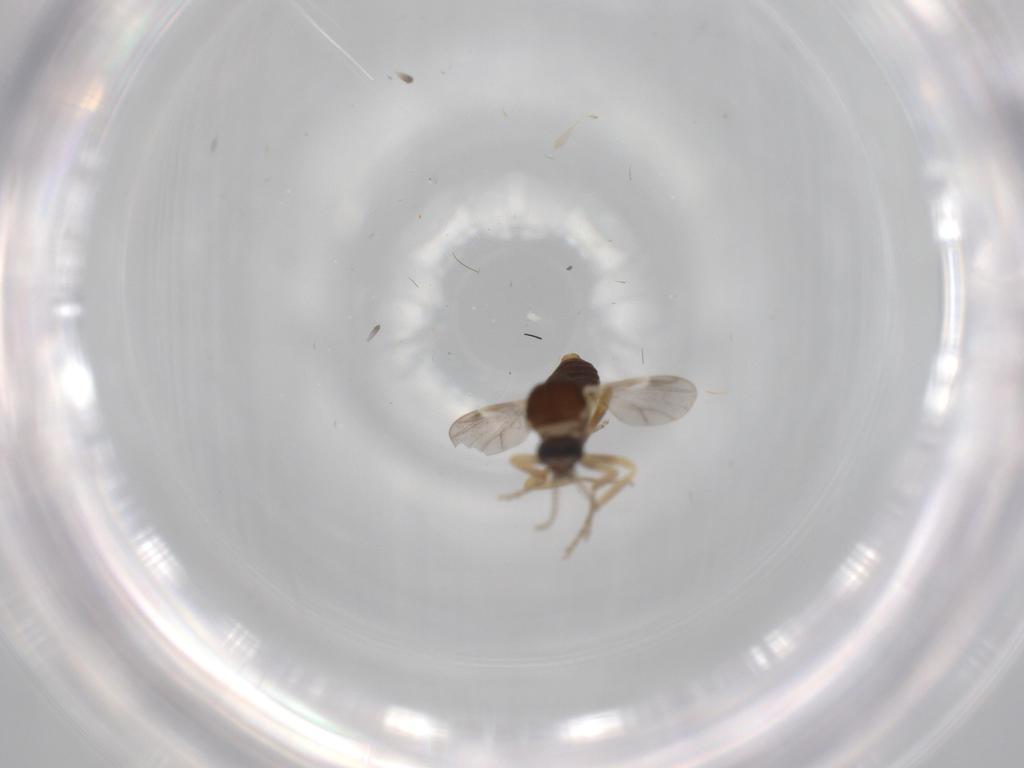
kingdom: Animalia
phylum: Arthropoda
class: Insecta
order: Diptera
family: Ceratopogonidae
